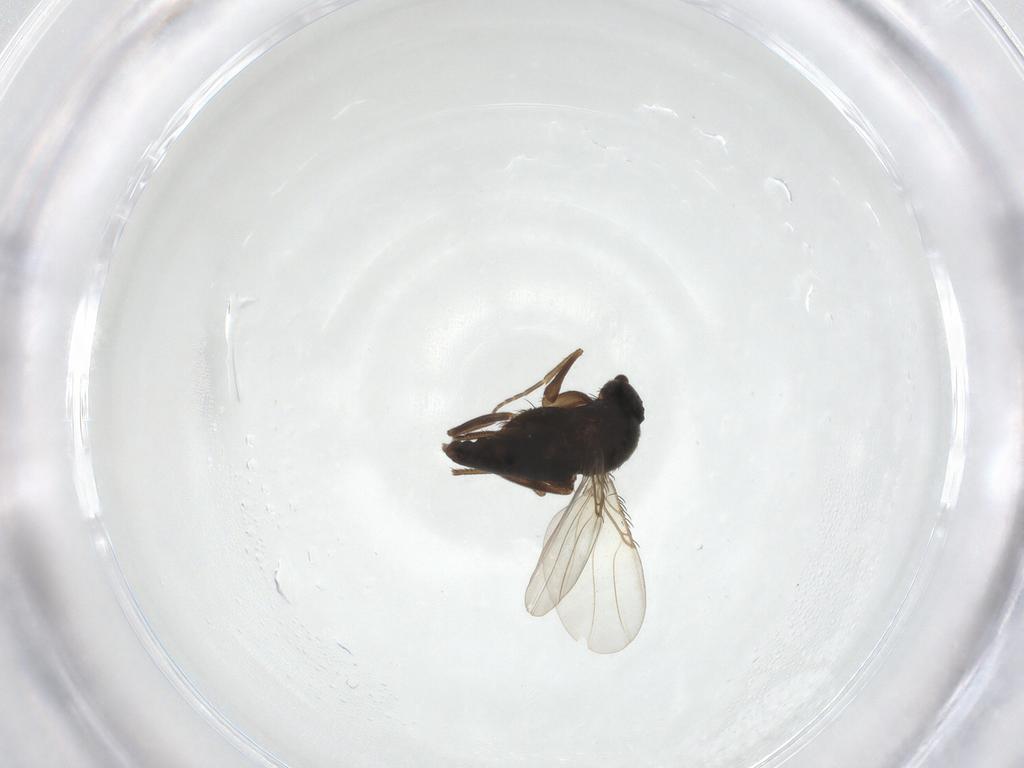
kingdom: Animalia
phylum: Arthropoda
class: Insecta
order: Diptera
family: Phoridae
